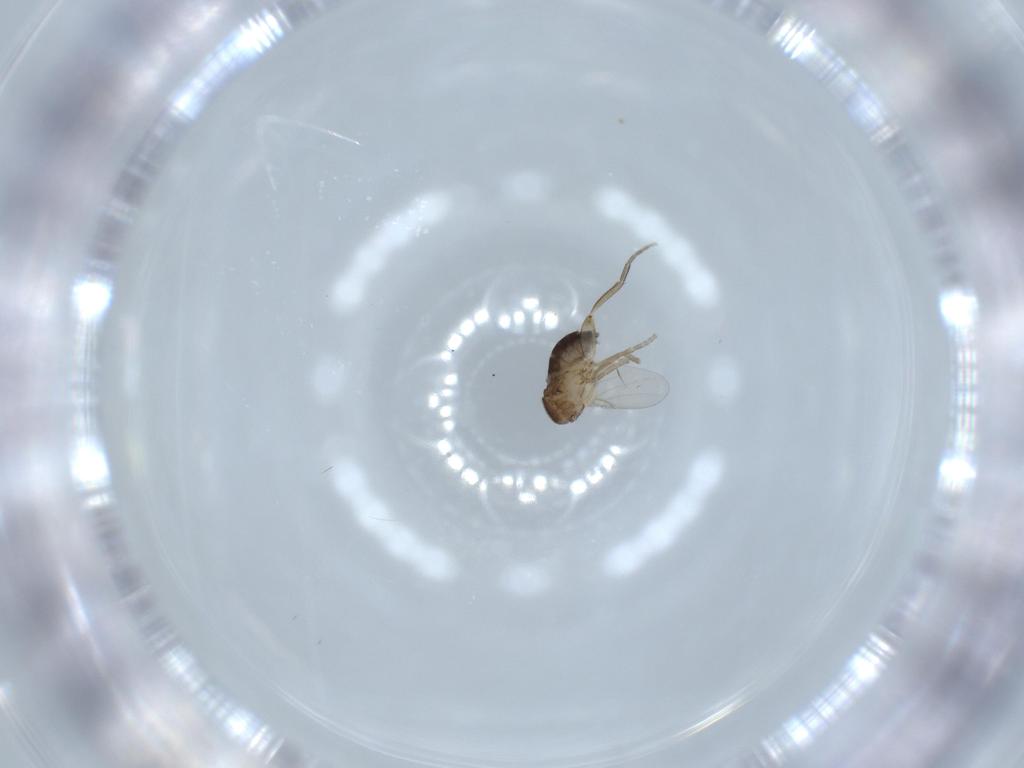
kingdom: Animalia
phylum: Arthropoda
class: Insecta
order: Diptera
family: Phoridae
